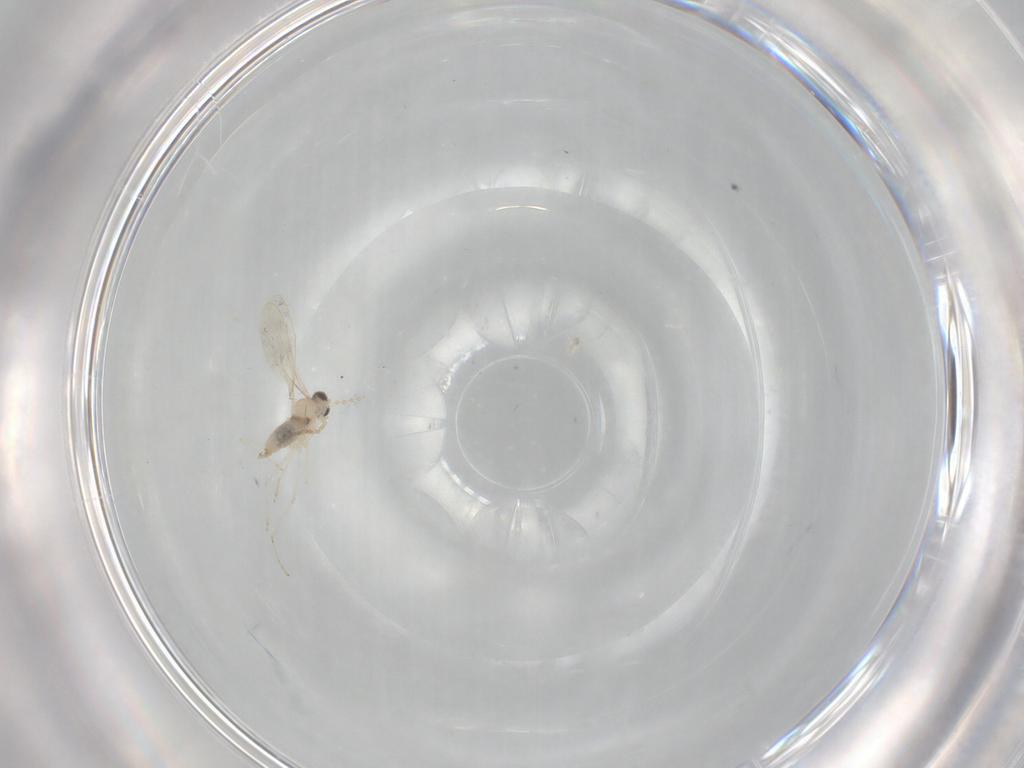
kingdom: Animalia
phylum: Arthropoda
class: Insecta
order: Diptera
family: Cecidomyiidae
